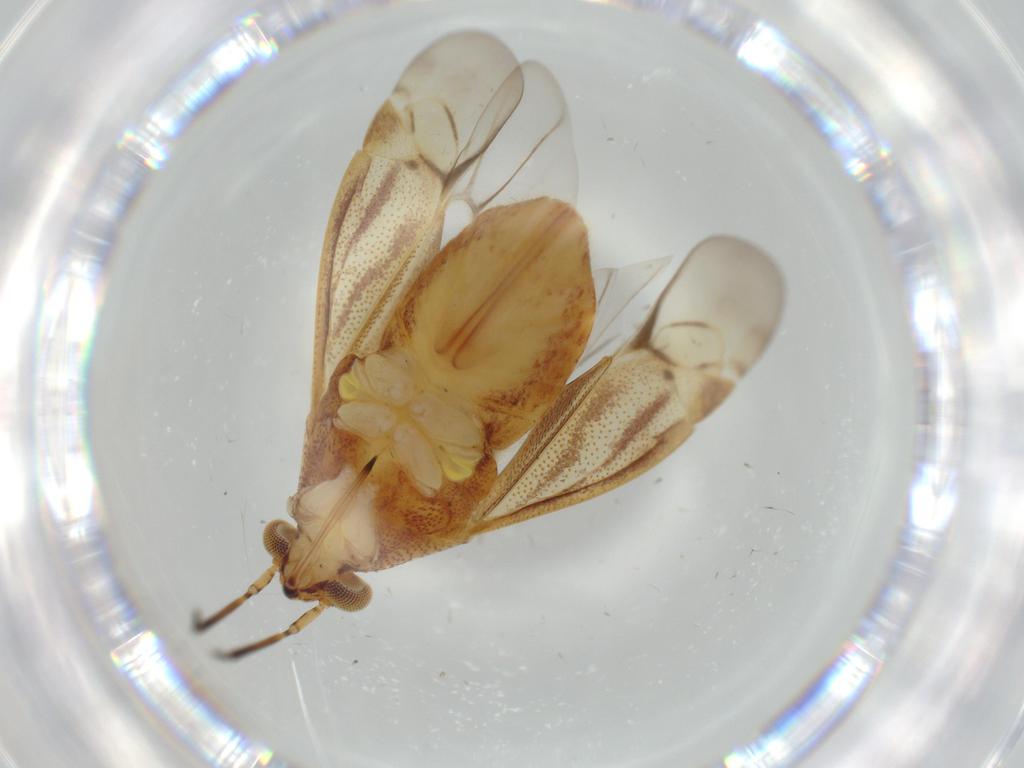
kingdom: Animalia
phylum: Arthropoda
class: Insecta
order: Hemiptera
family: Miridae
